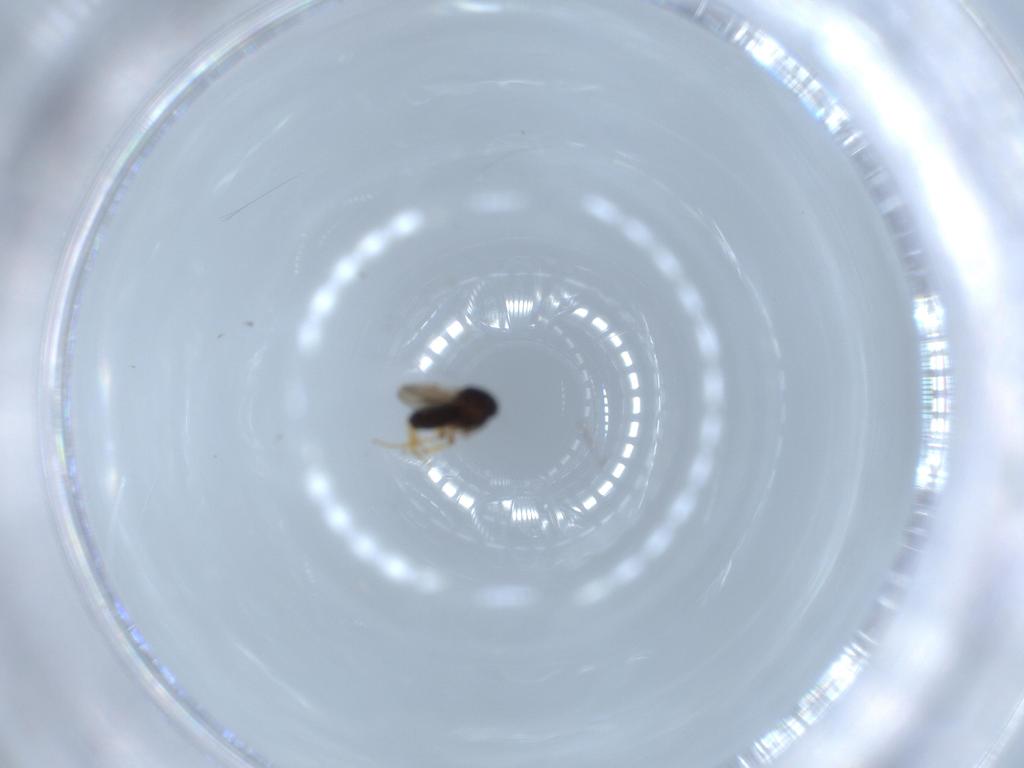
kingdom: Animalia
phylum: Arthropoda
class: Insecta
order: Hymenoptera
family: Scelionidae
